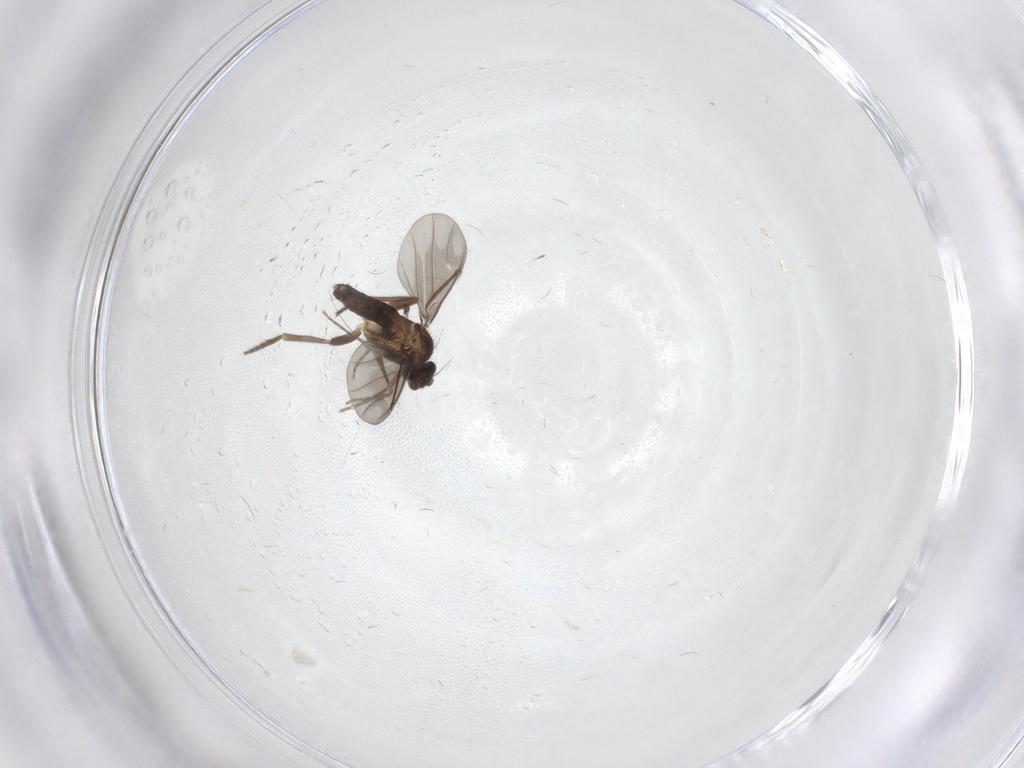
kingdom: Animalia
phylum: Arthropoda
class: Insecta
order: Diptera
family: Phoridae
